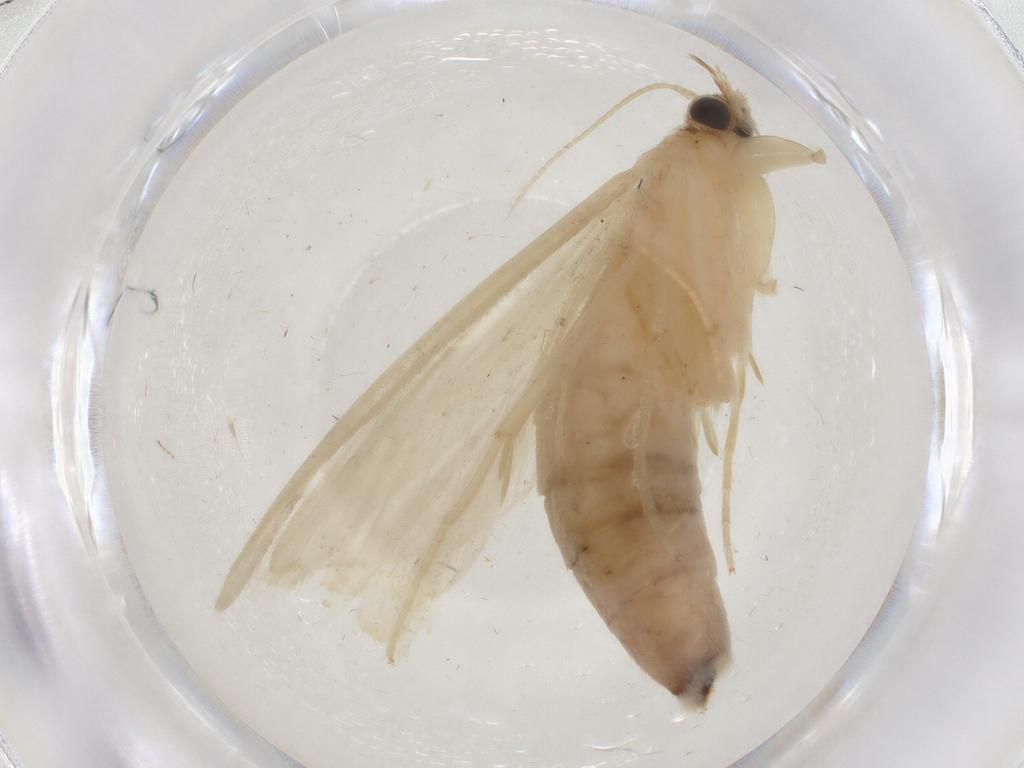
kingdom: Animalia
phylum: Arthropoda
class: Insecta
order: Lepidoptera
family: Crambidae
